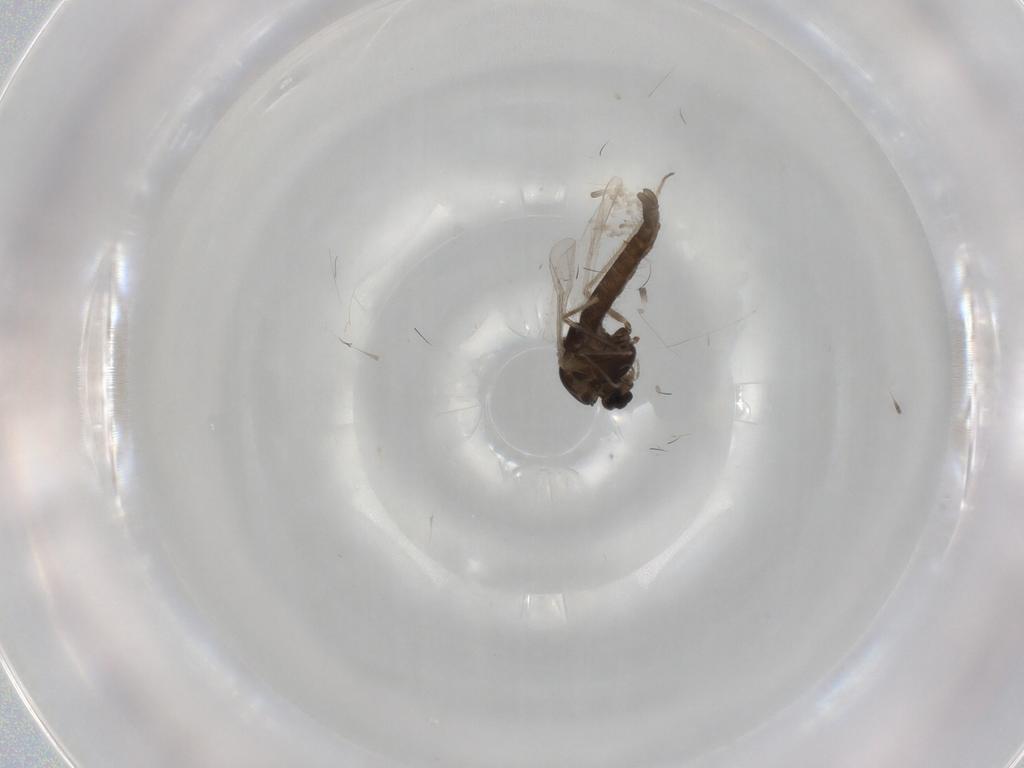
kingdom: Animalia
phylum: Arthropoda
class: Insecta
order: Diptera
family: Chironomidae
